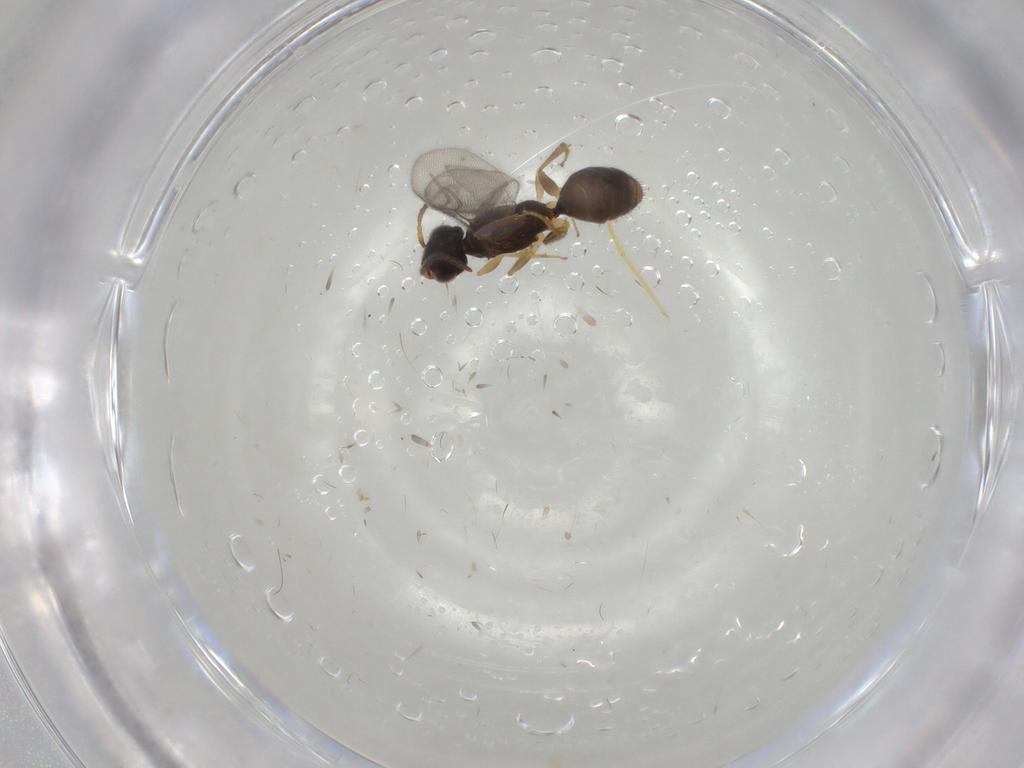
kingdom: Animalia
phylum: Arthropoda
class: Insecta
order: Hymenoptera
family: Bethylidae
